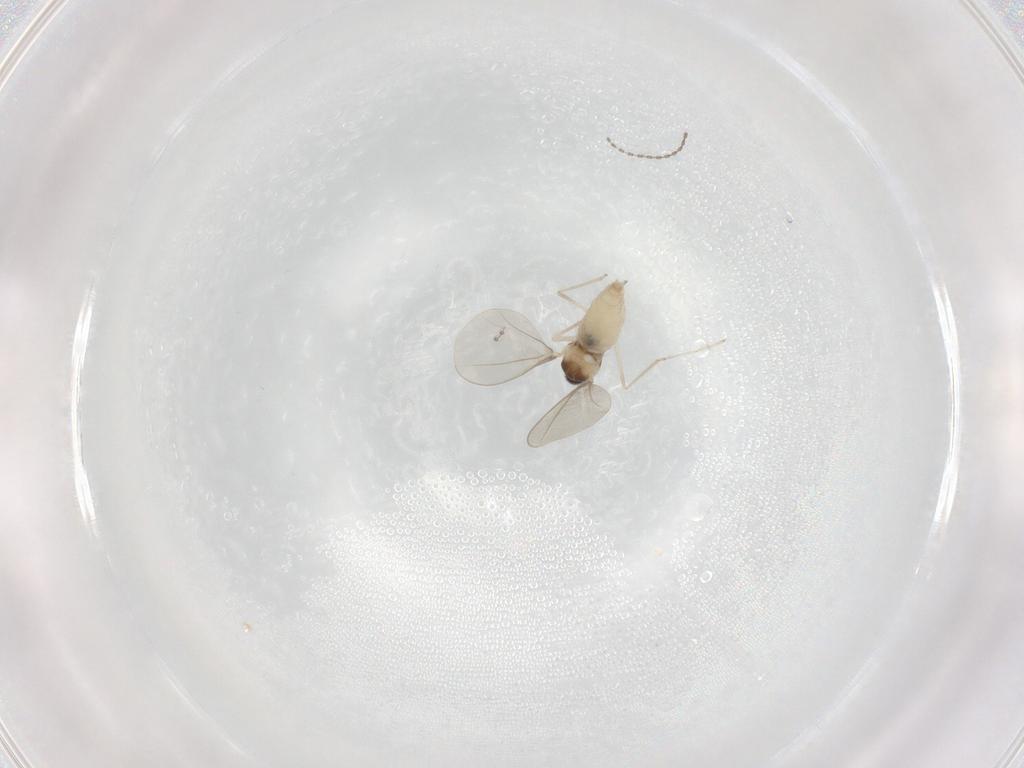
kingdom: Animalia
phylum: Arthropoda
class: Insecta
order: Diptera
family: Cecidomyiidae
